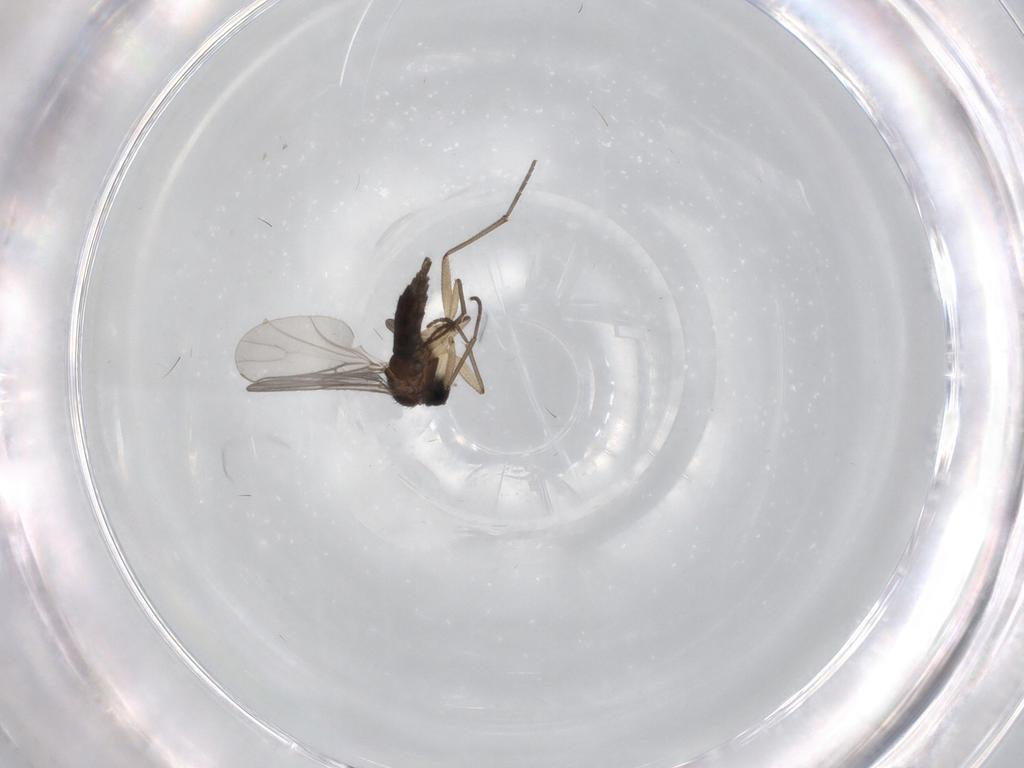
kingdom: Animalia
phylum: Arthropoda
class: Insecta
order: Diptera
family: Sciaridae
